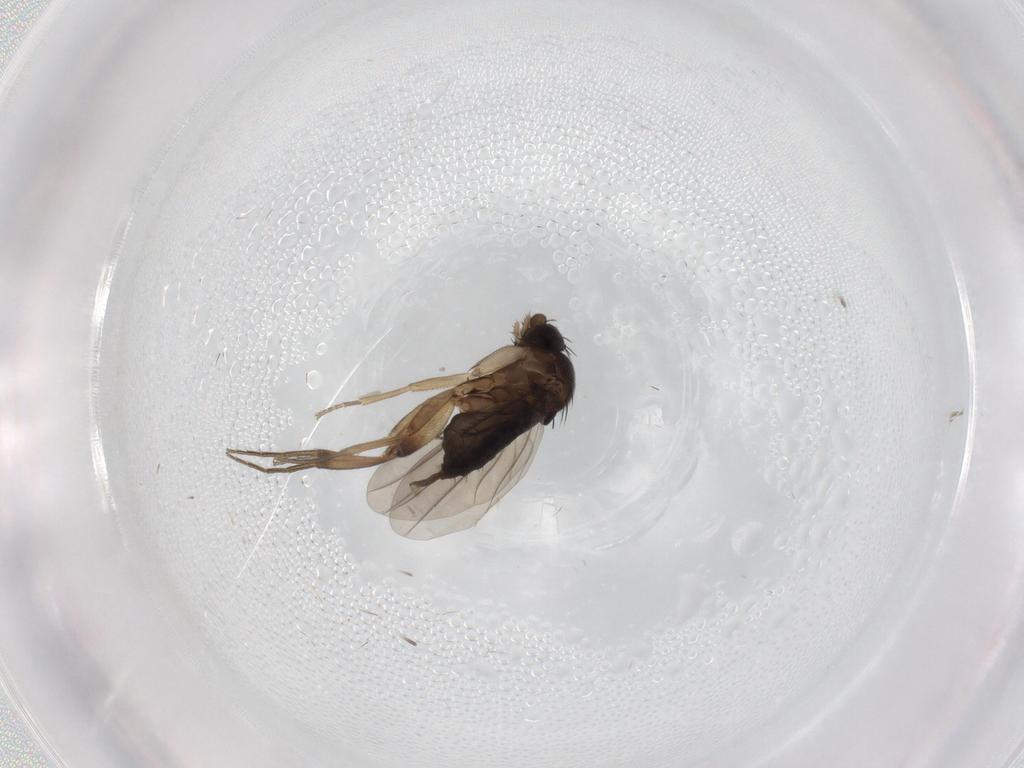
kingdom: Animalia
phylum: Arthropoda
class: Insecta
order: Diptera
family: Phoridae
